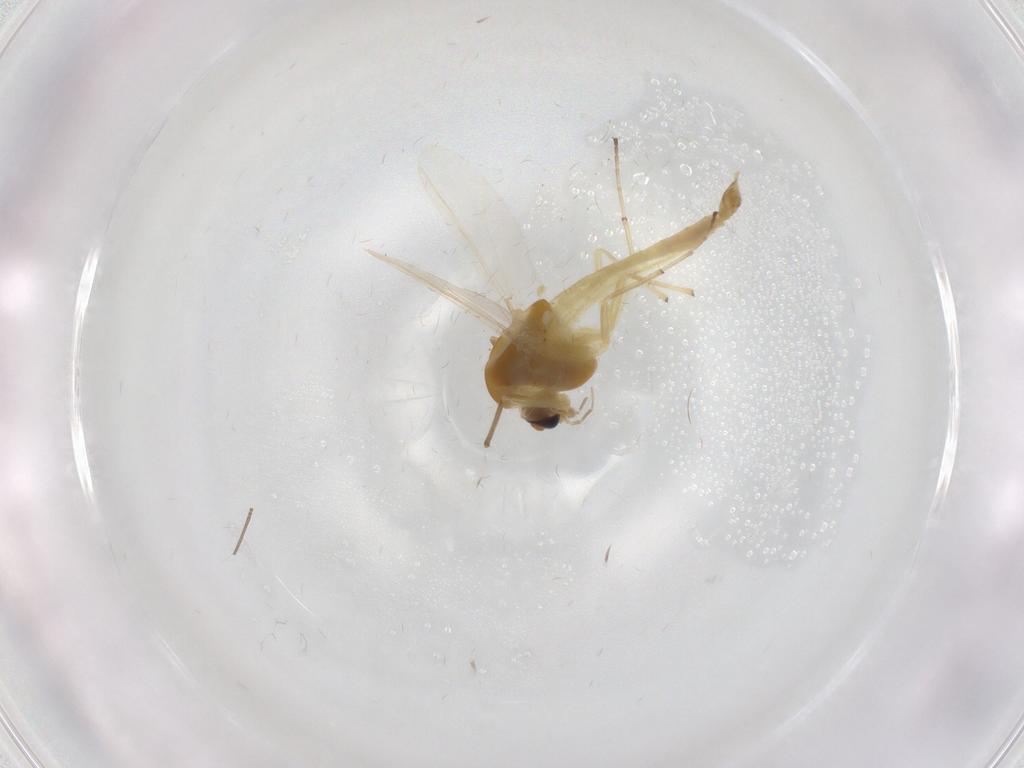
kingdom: Animalia
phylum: Arthropoda
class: Insecta
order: Diptera
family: Chironomidae
